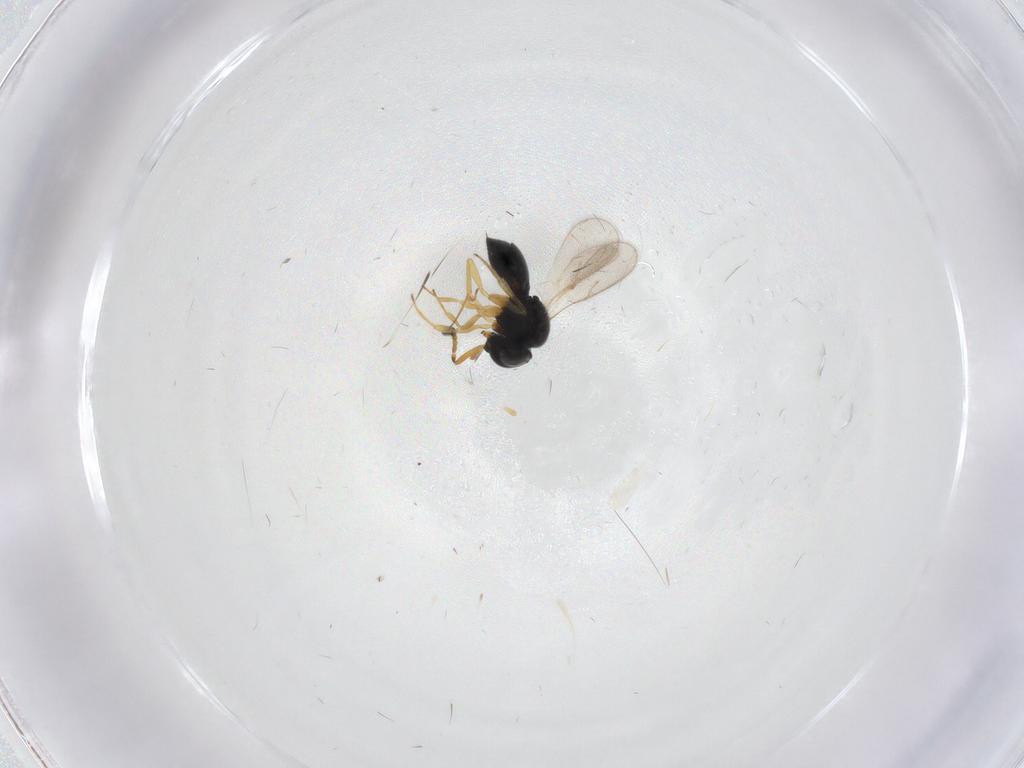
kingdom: Animalia
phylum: Arthropoda
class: Insecta
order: Hymenoptera
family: Scelionidae
